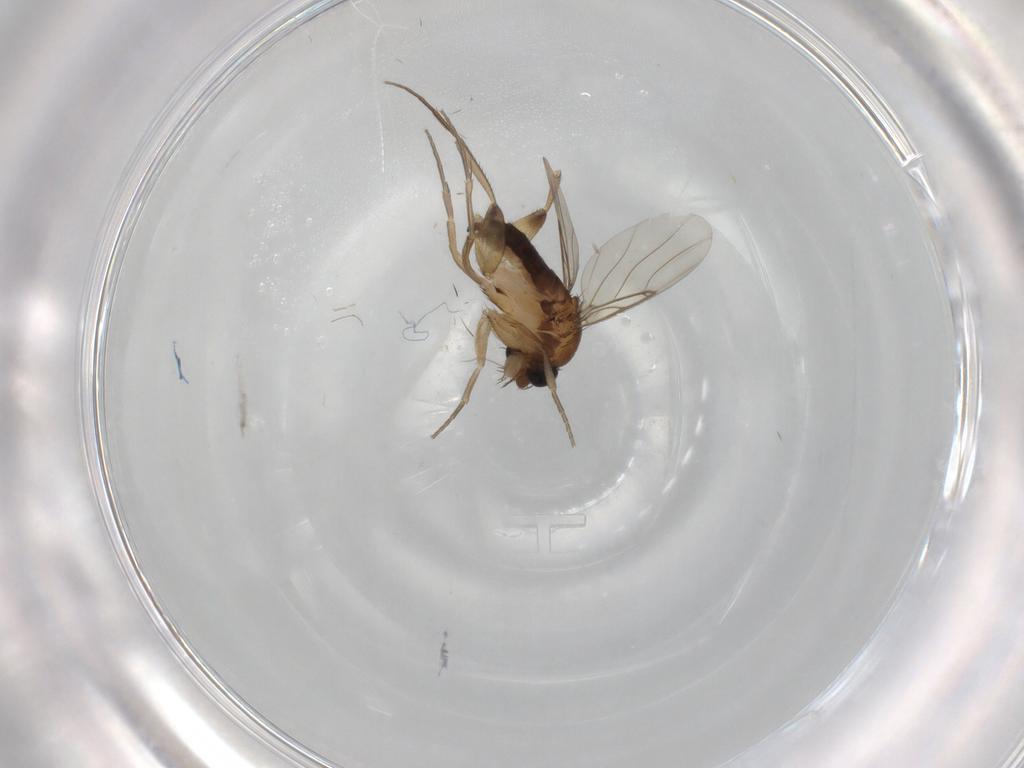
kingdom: Animalia
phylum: Arthropoda
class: Insecta
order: Diptera
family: Phoridae
